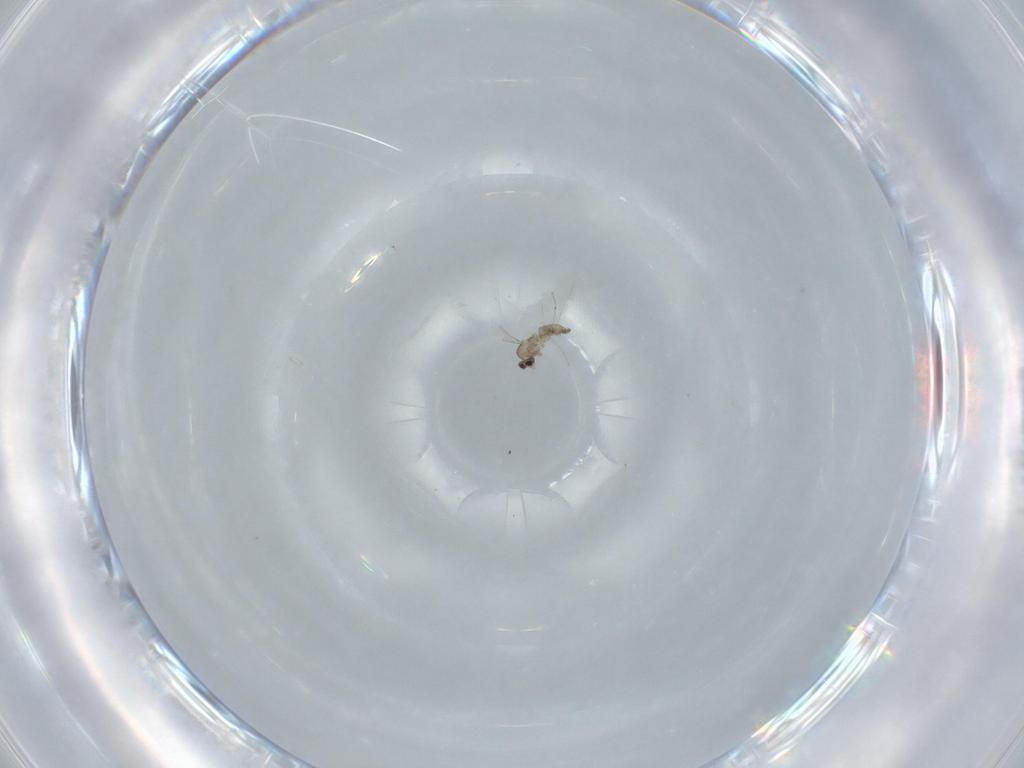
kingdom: Animalia
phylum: Arthropoda
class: Insecta
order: Diptera
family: Cecidomyiidae
